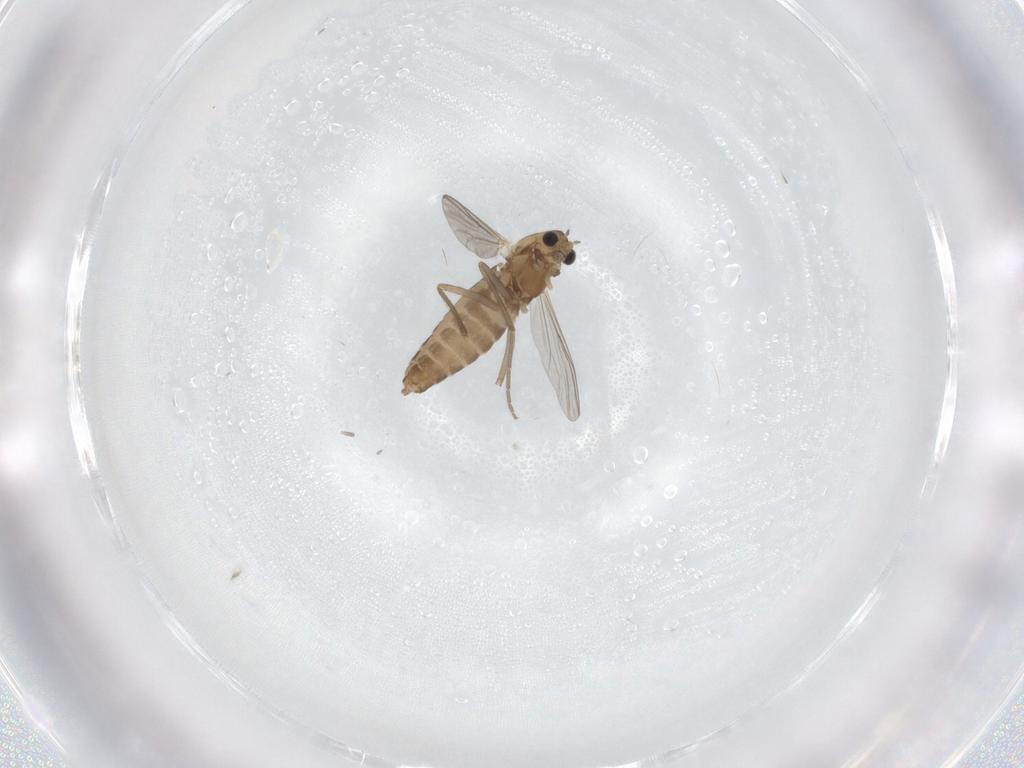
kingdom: Animalia
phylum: Arthropoda
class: Insecta
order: Diptera
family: Chironomidae
